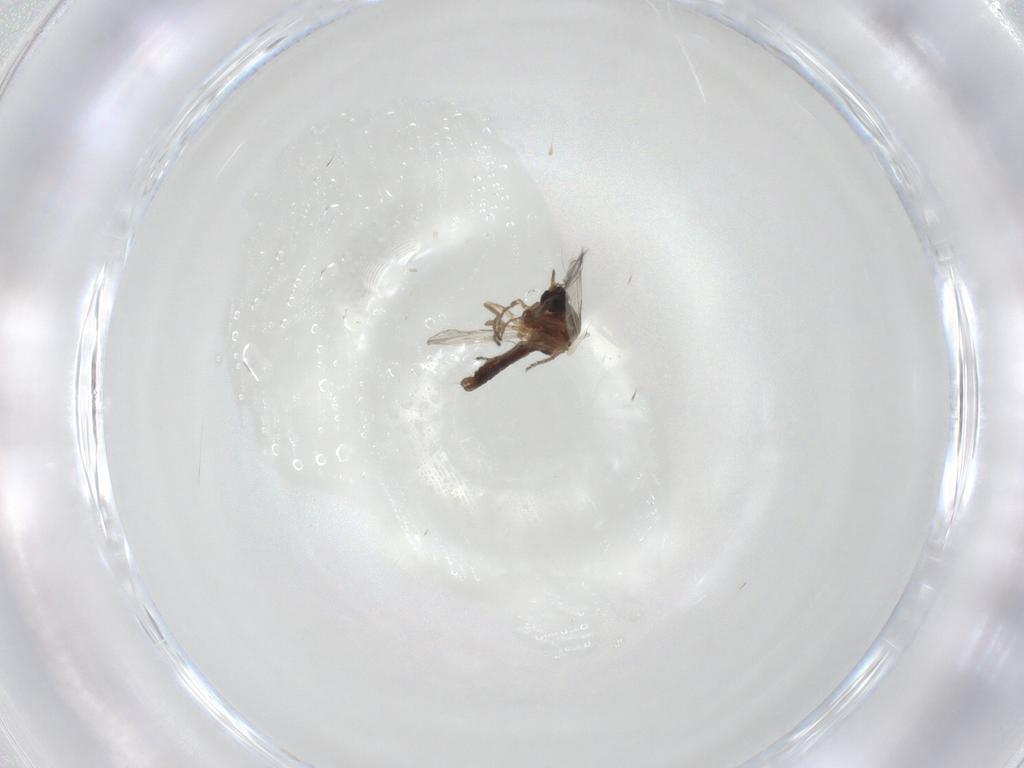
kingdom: Animalia
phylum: Arthropoda
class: Insecta
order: Diptera
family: Ceratopogonidae
